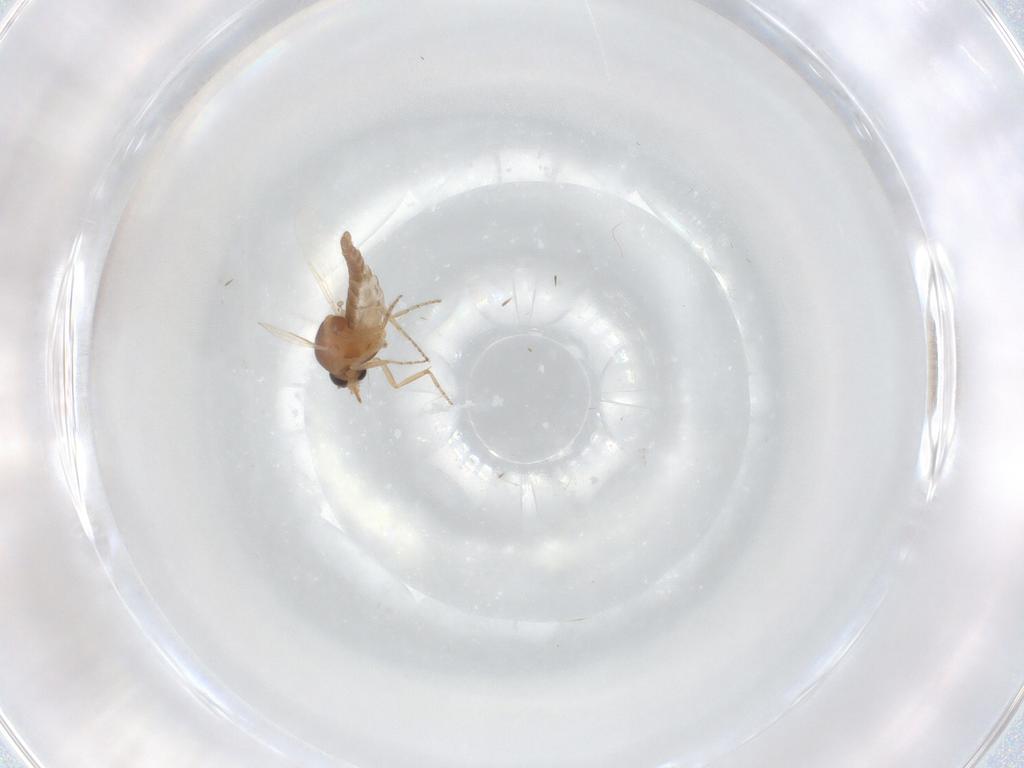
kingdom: Animalia
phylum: Arthropoda
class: Insecta
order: Diptera
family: Ceratopogonidae
